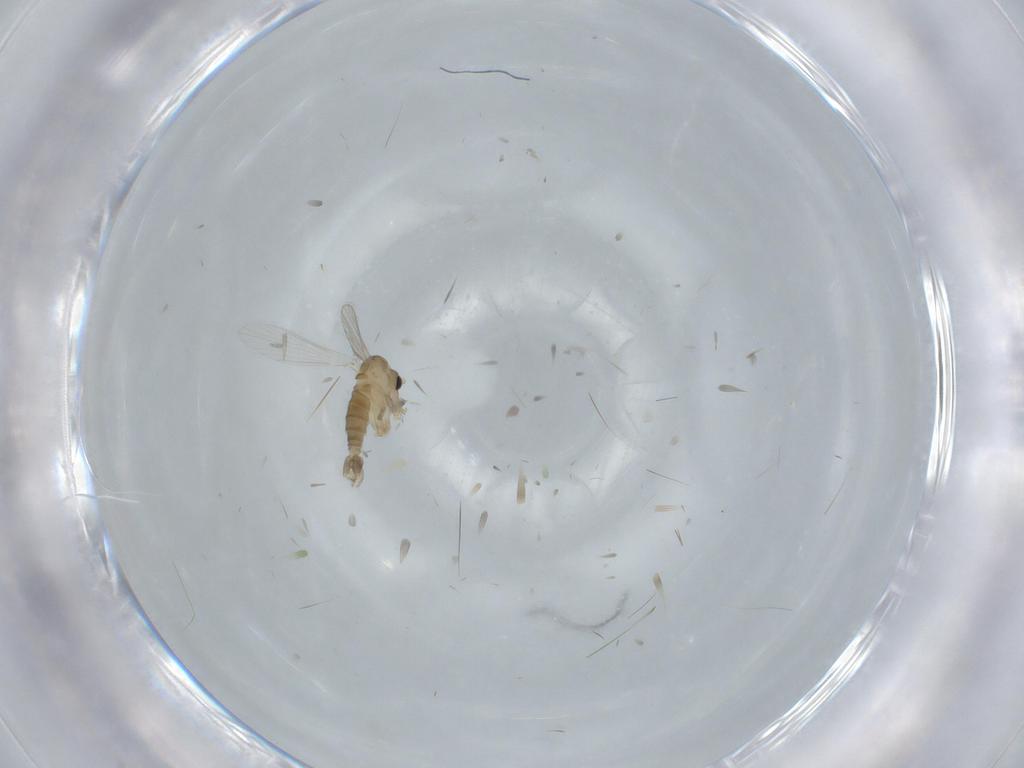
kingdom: Animalia
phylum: Arthropoda
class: Insecta
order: Diptera
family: Psychodidae
